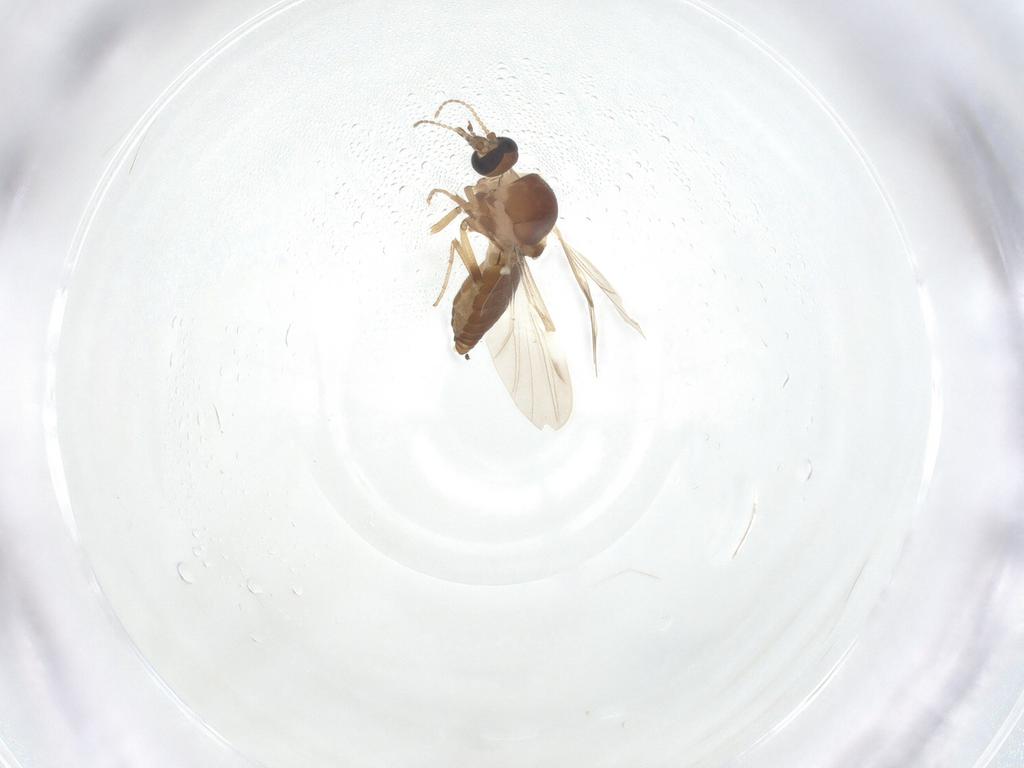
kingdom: Animalia
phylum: Arthropoda
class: Insecta
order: Diptera
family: Ceratopogonidae
